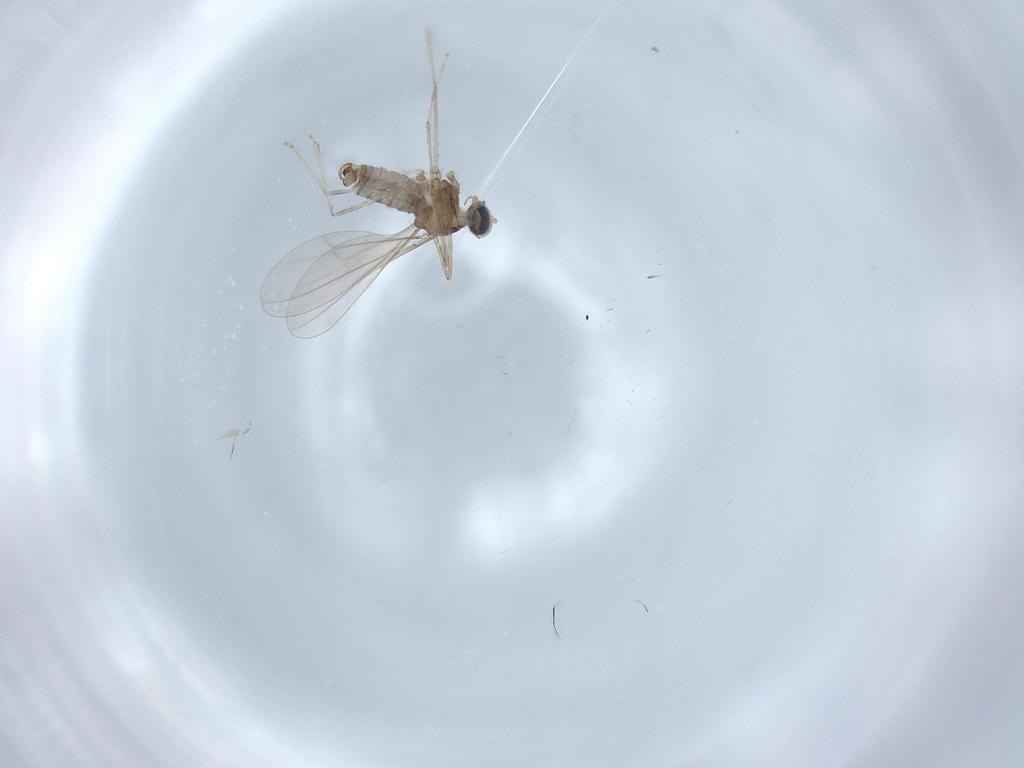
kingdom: Animalia
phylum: Arthropoda
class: Insecta
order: Diptera
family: Cecidomyiidae
